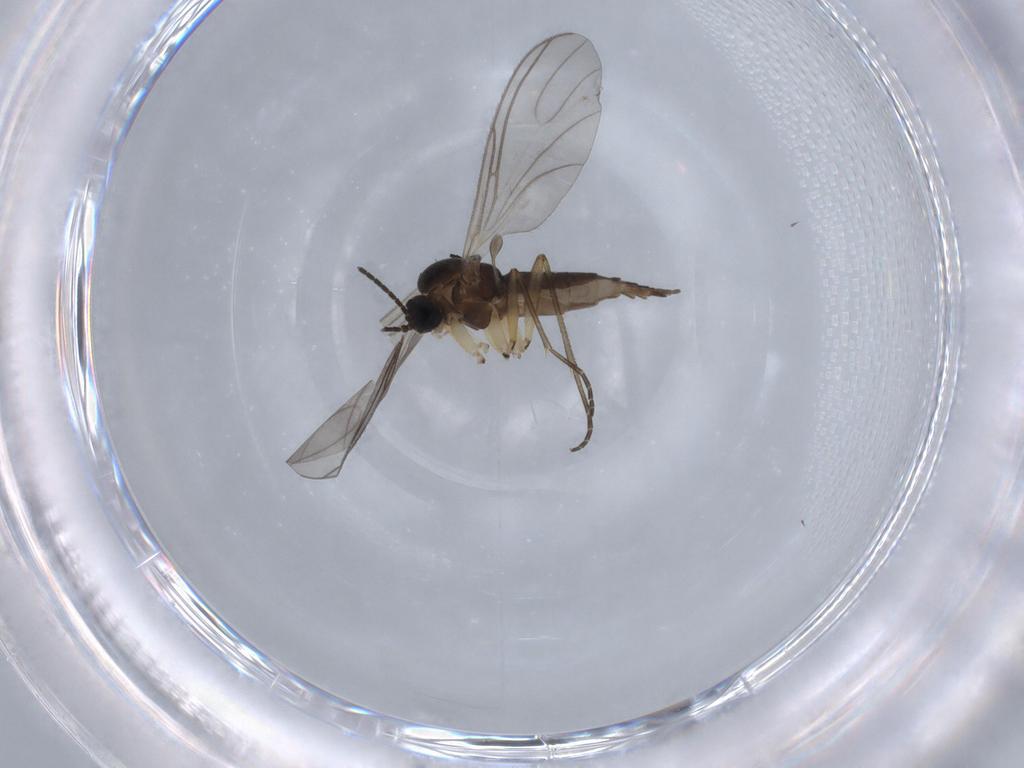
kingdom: Animalia
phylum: Arthropoda
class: Insecta
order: Diptera
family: Sciaridae
